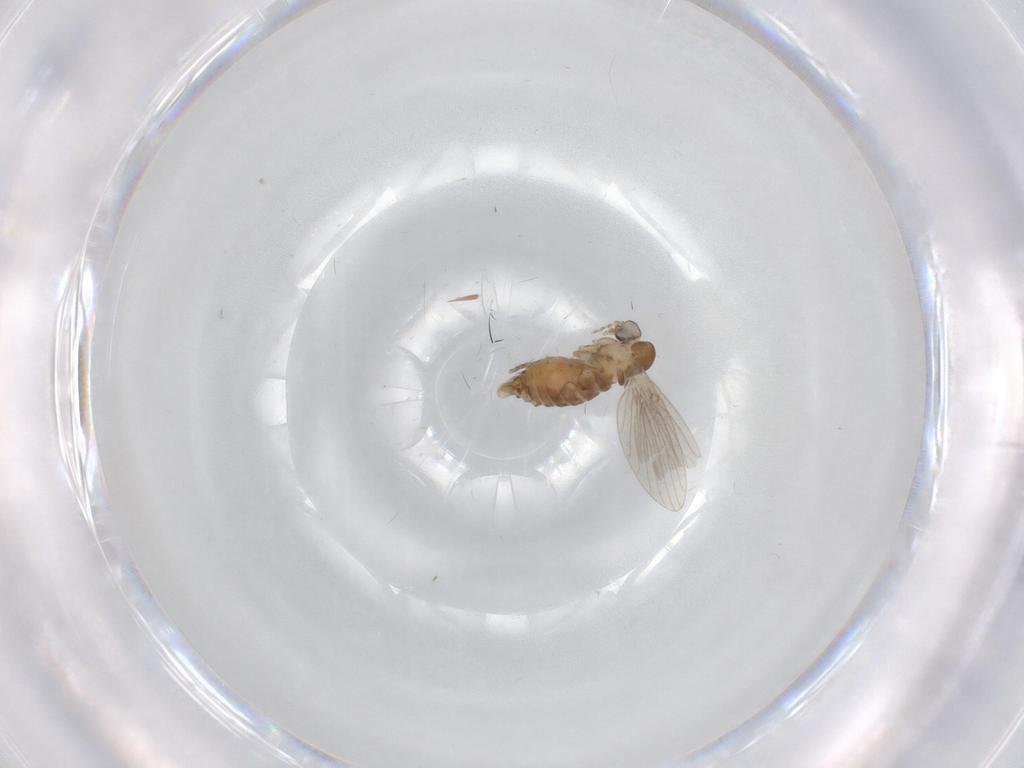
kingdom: Animalia
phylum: Arthropoda
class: Insecta
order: Diptera
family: Psychodidae
